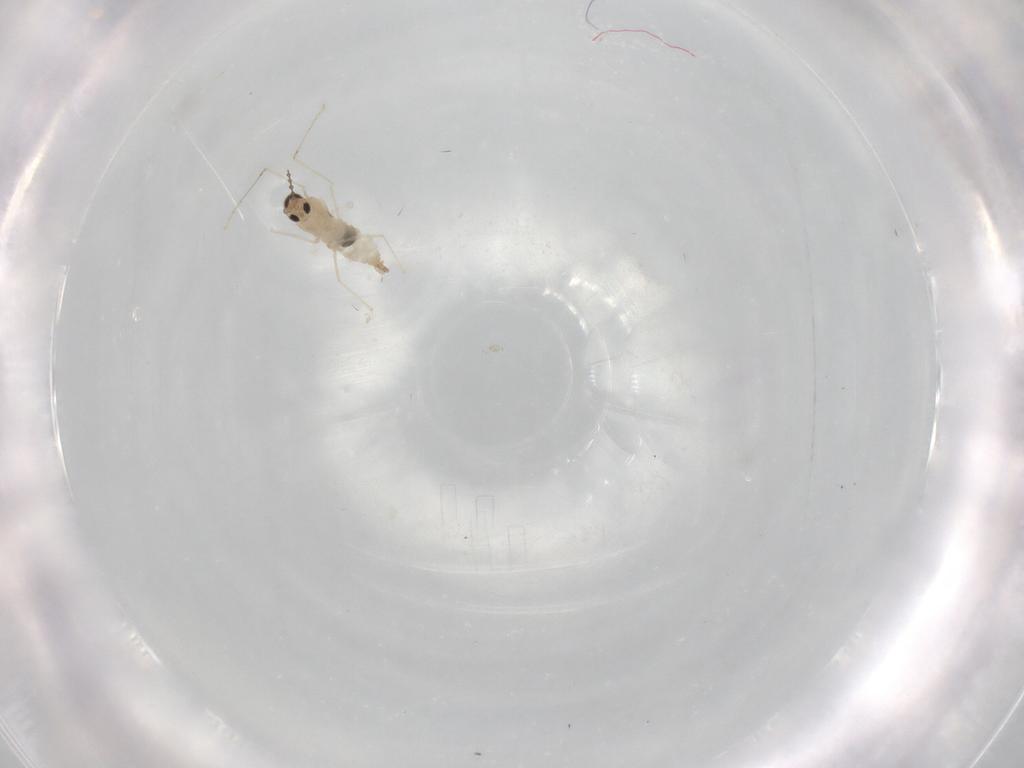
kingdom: Animalia
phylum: Arthropoda
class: Insecta
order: Diptera
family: Cecidomyiidae
